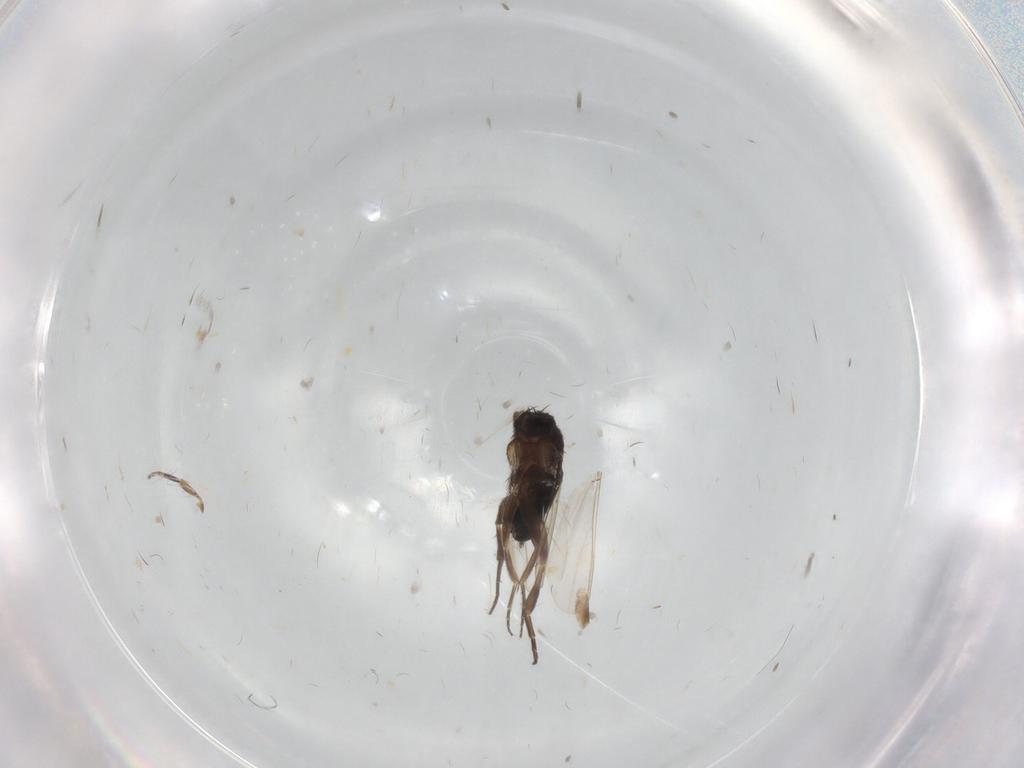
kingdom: Animalia
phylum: Arthropoda
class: Insecta
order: Diptera
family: Psychodidae
